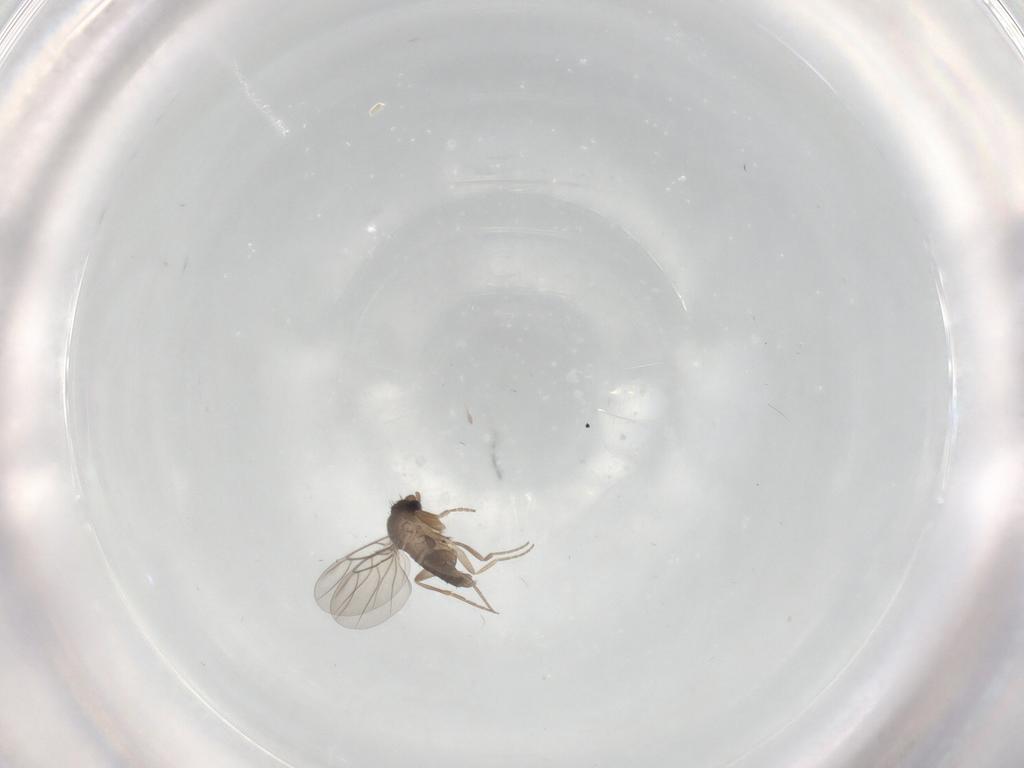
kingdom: Animalia
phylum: Arthropoda
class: Insecta
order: Diptera
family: Phoridae
